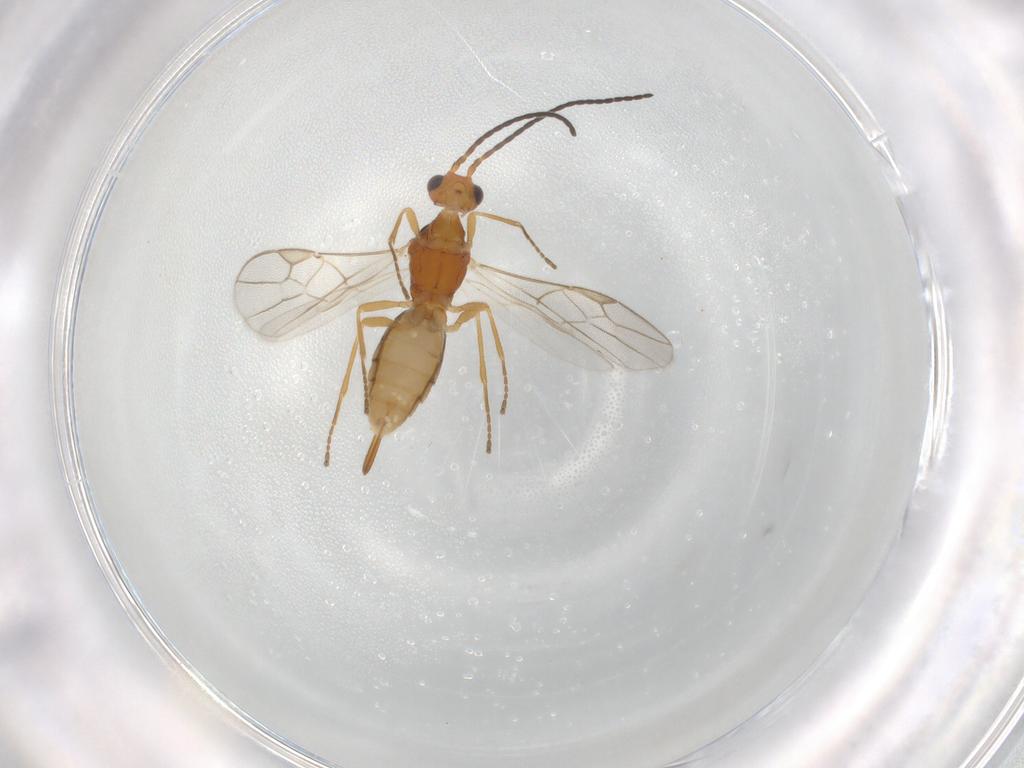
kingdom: Animalia
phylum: Arthropoda
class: Insecta
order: Hymenoptera
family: Braconidae
